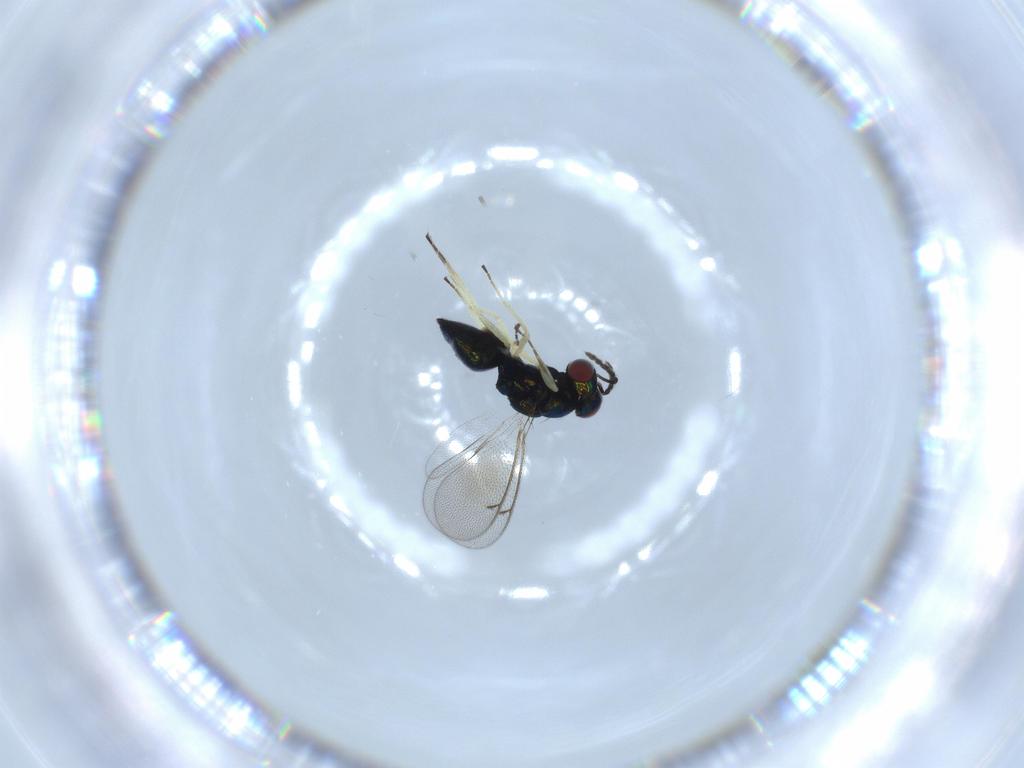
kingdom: Animalia
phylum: Arthropoda
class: Insecta
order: Hymenoptera
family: Eulophidae
